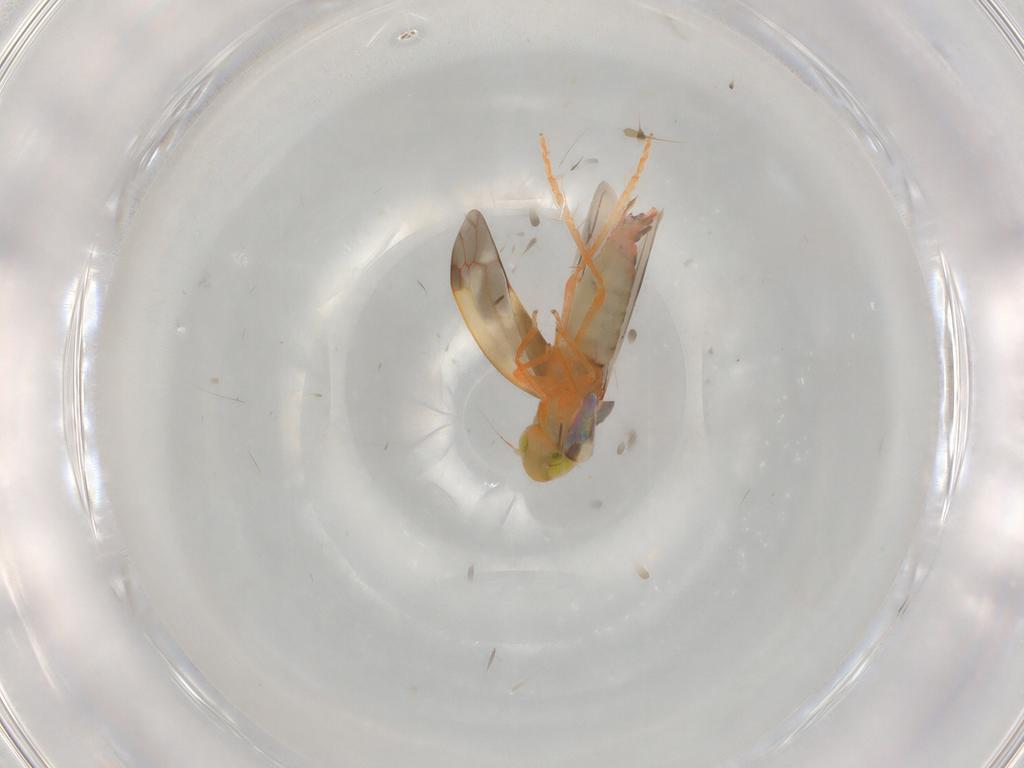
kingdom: Animalia
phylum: Arthropoda
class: Insecta
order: Hemiptera
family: Cicadellidae
